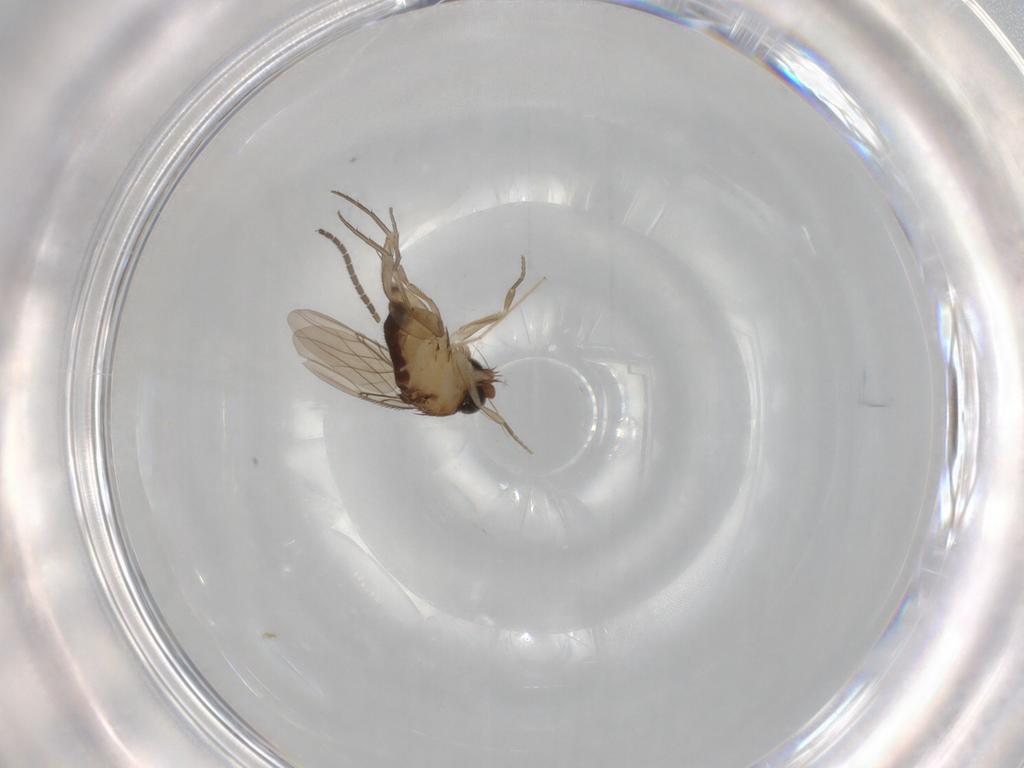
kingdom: Animalia
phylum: Arthropoda
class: Insecta
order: Diptera
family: Phoridae
